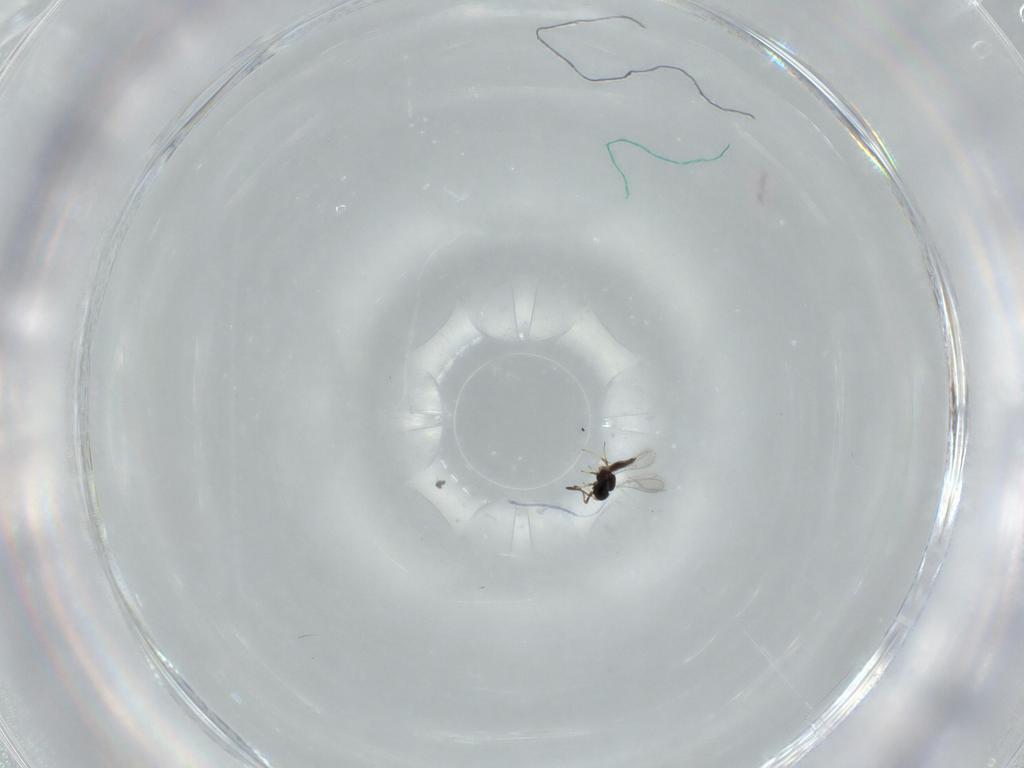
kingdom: Animalia
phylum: Arthropoda
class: Insecta
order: Hymenoptera
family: Scelionidae
